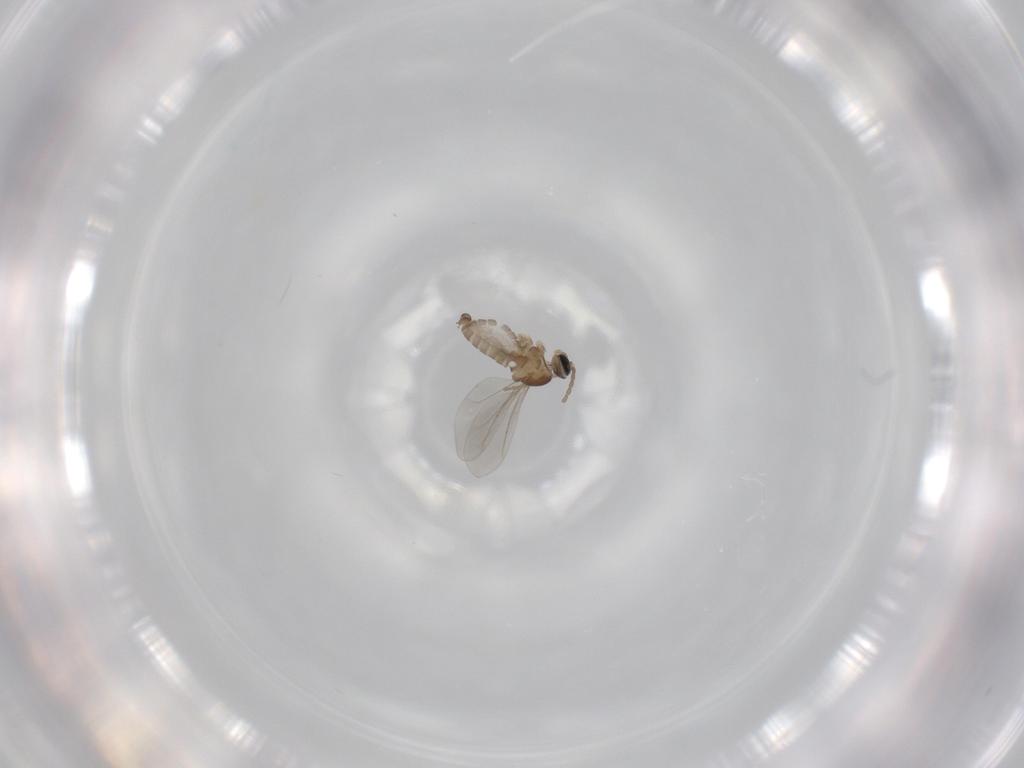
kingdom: Animalia
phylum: Arthropoda
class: Insecta
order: Diptera
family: Cecidomyiidae
